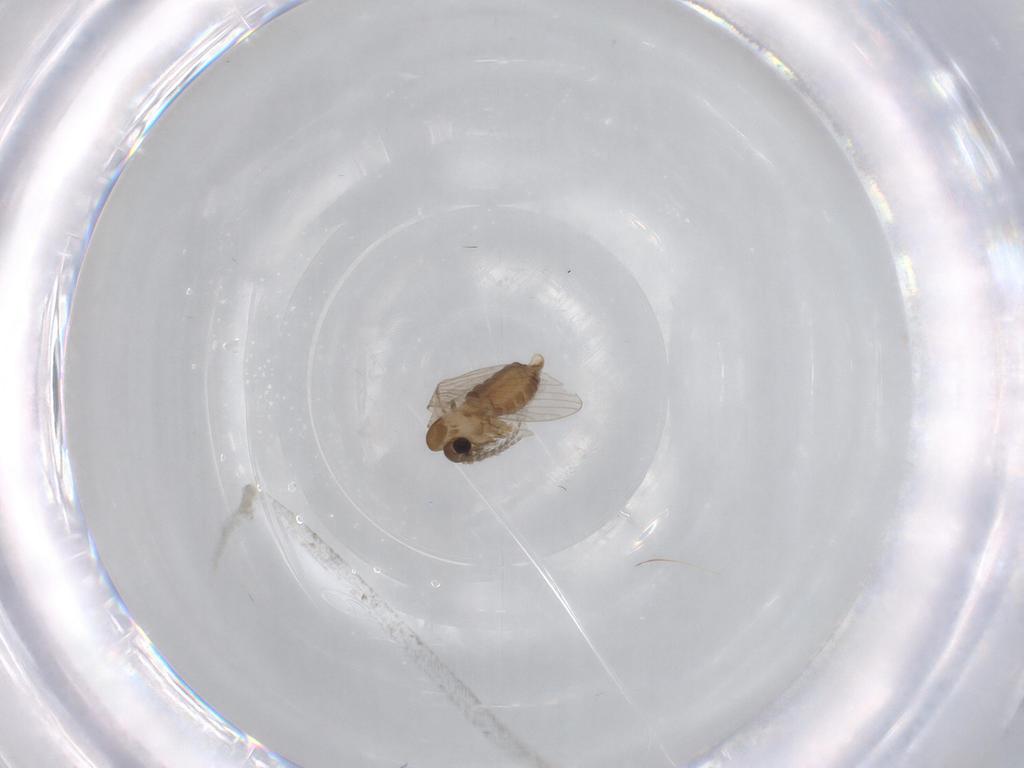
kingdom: Animalia
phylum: Arthropoda
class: Insecta
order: Diptera
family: Psychodidae
